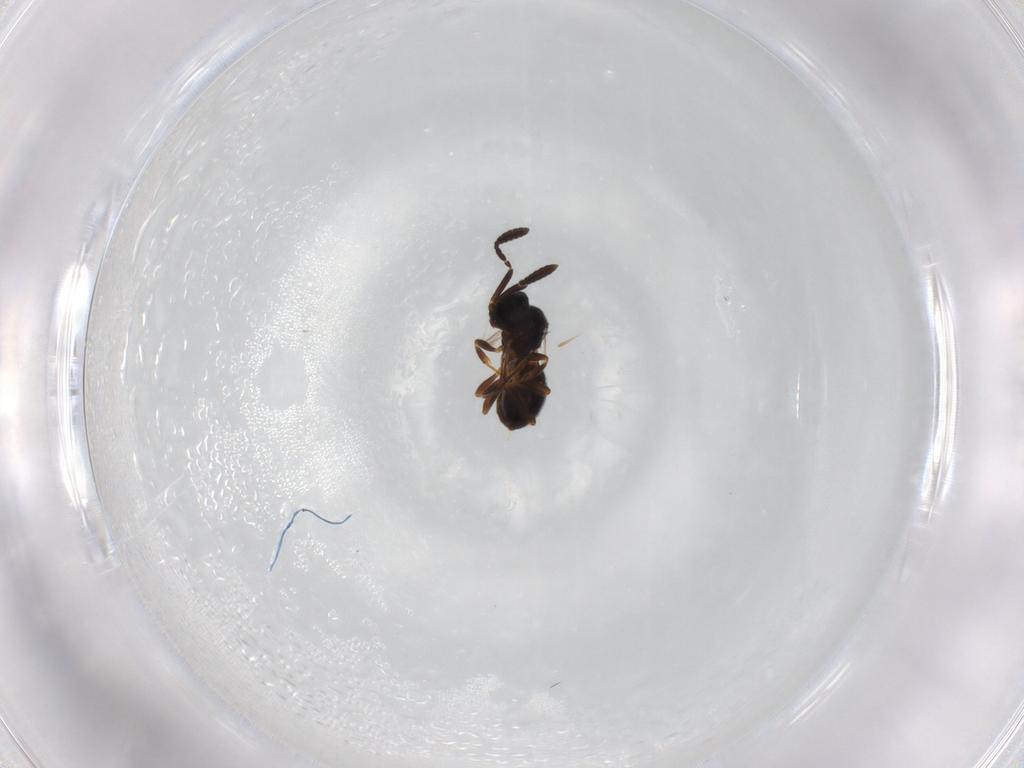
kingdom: Animalia
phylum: Arthropoda
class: Insecta
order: Hymenoptera
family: Scelionidae
